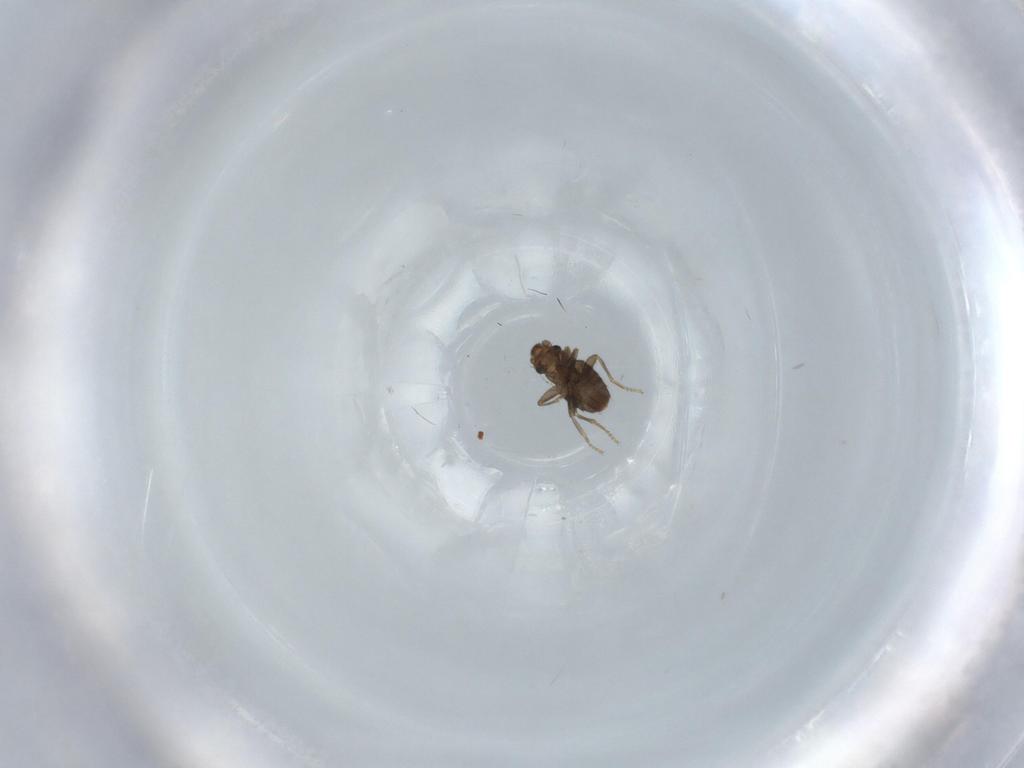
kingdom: Animalia
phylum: Arthropoda
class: Insecta
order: Diptera
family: Phoridae
